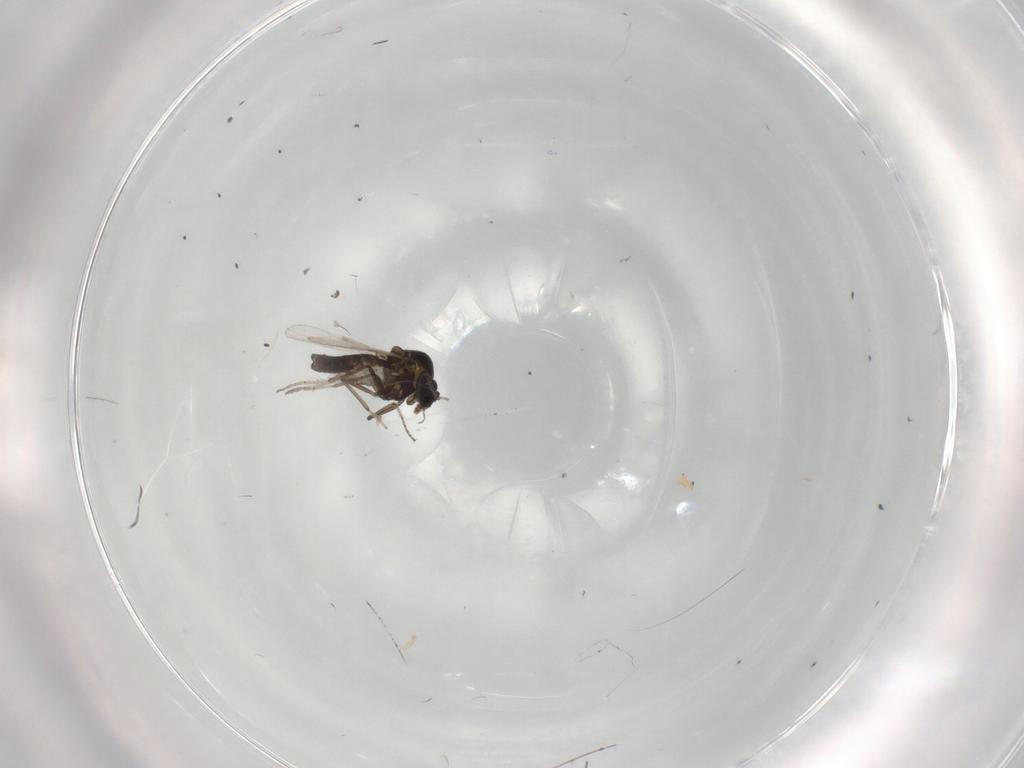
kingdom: Animalia
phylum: Arthropoda
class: Insecta
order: Diptera
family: Ceratopogonidae
